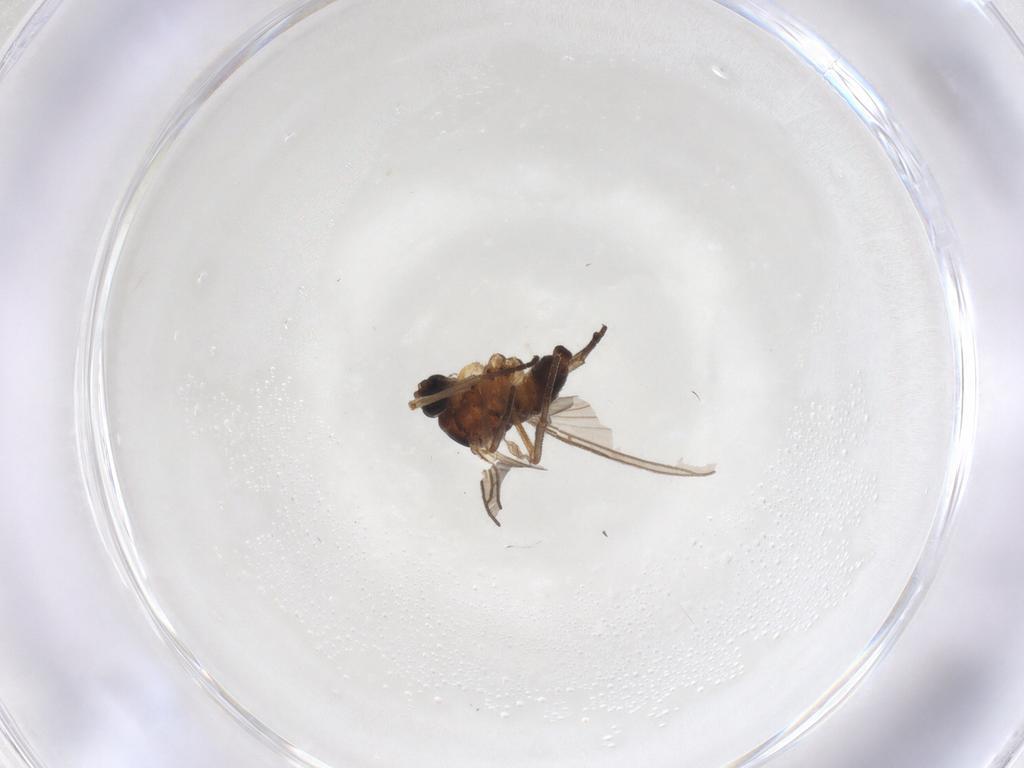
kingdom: Animalia
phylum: Arthropoda
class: Insecta
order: Diptera
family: Sciaridae
